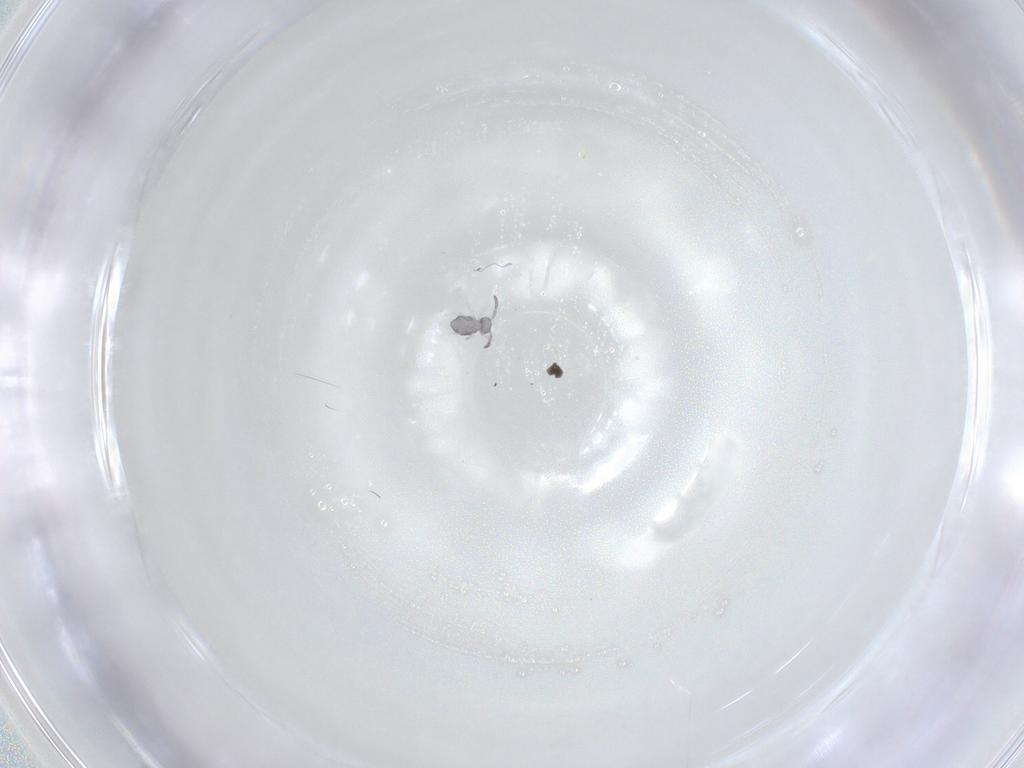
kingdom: Animalia
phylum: Arthropoda
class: Collembola
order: Symphypleona
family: Katiannidae
